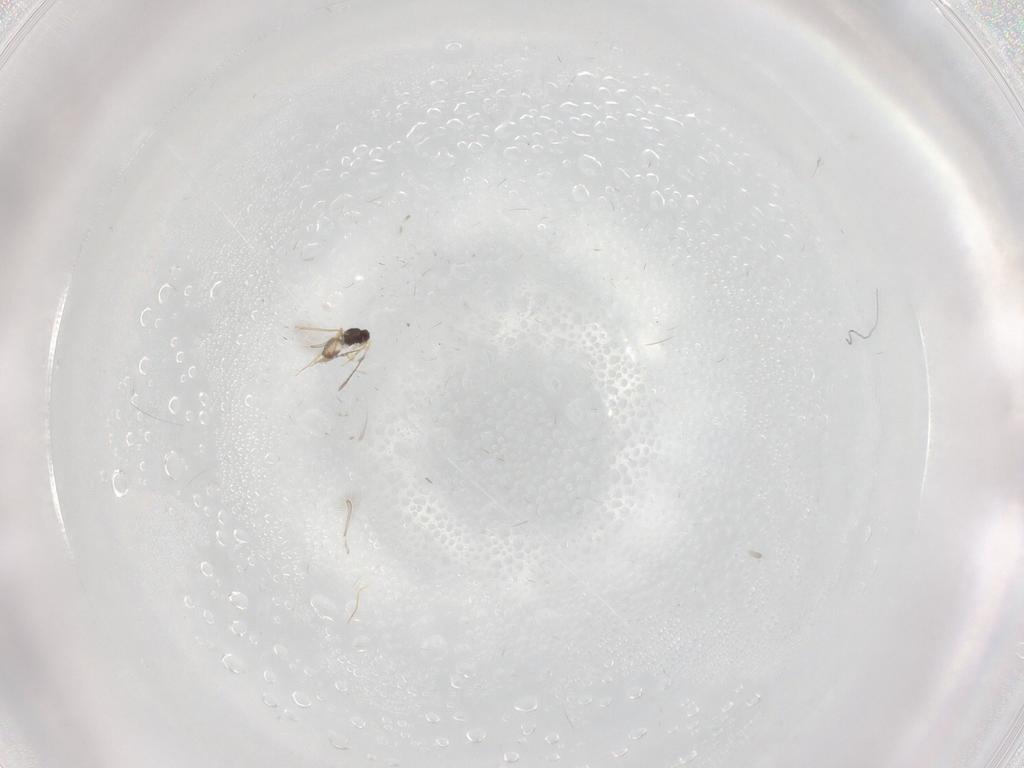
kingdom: Animalia
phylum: Arthropoda
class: Insecta
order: Hymenoptera
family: Mymaridae
